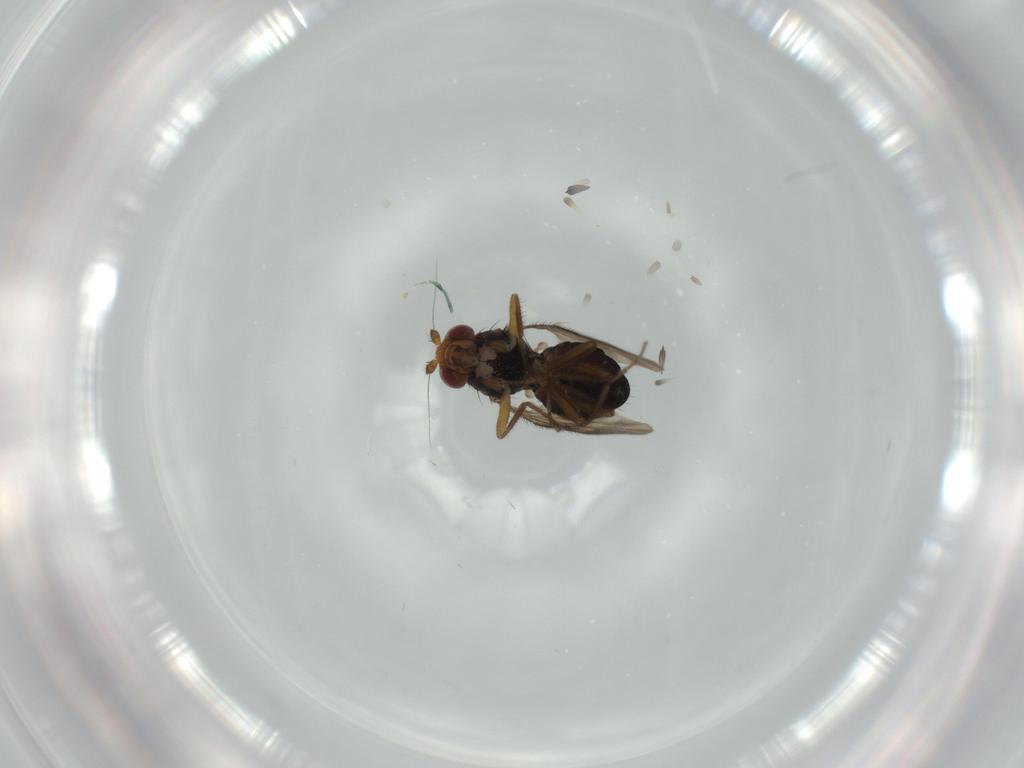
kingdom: Animalia
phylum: Arthropoda
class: Insecta
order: Diptera
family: Sphaeroceridae
